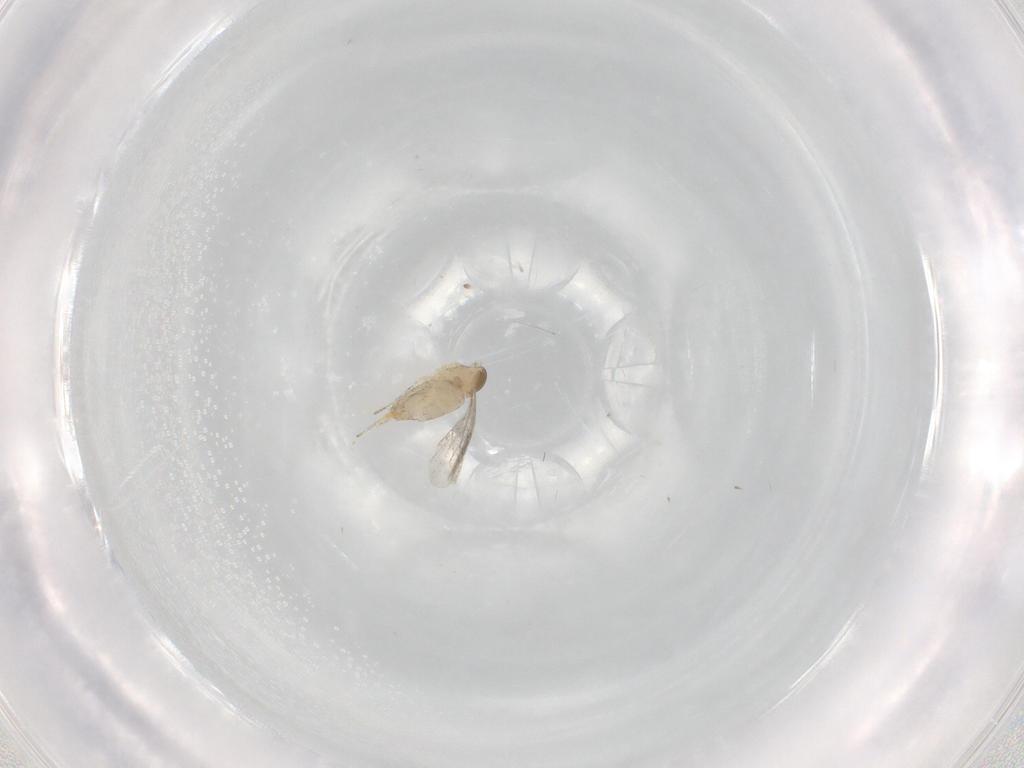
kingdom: Animalia
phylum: Arthropoda
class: Insecta
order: Diptera
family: Cecidomyiidae
